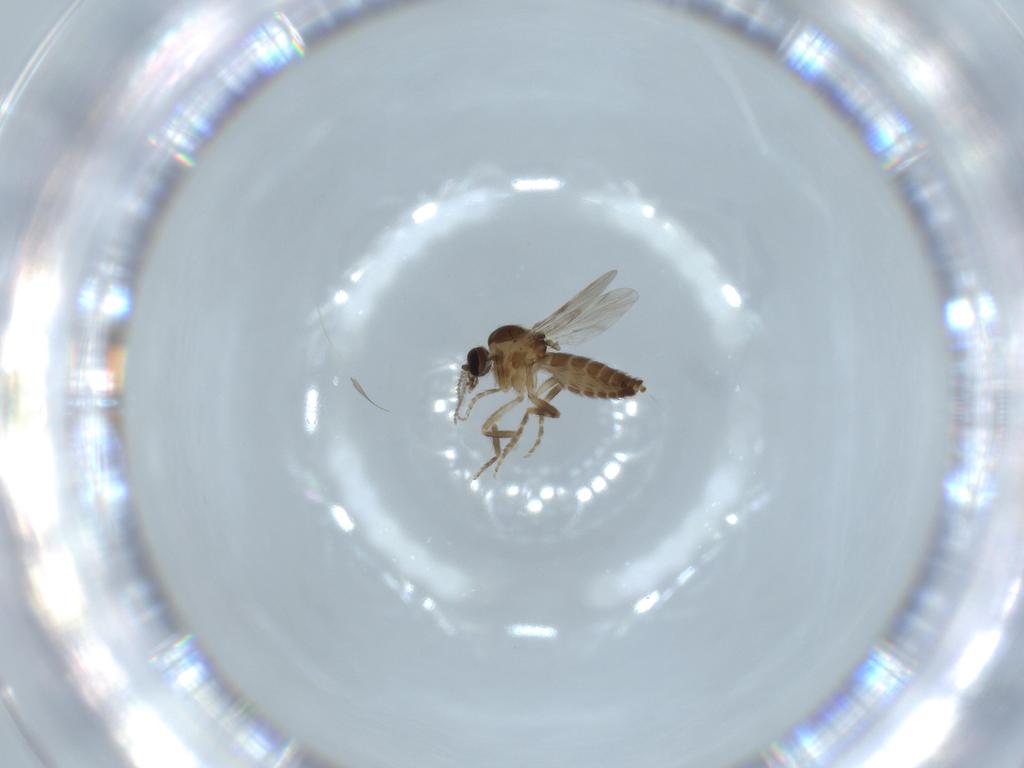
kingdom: Animalia
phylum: Arthropoda
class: Insecta
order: Diptera
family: Ceratopogonidae
